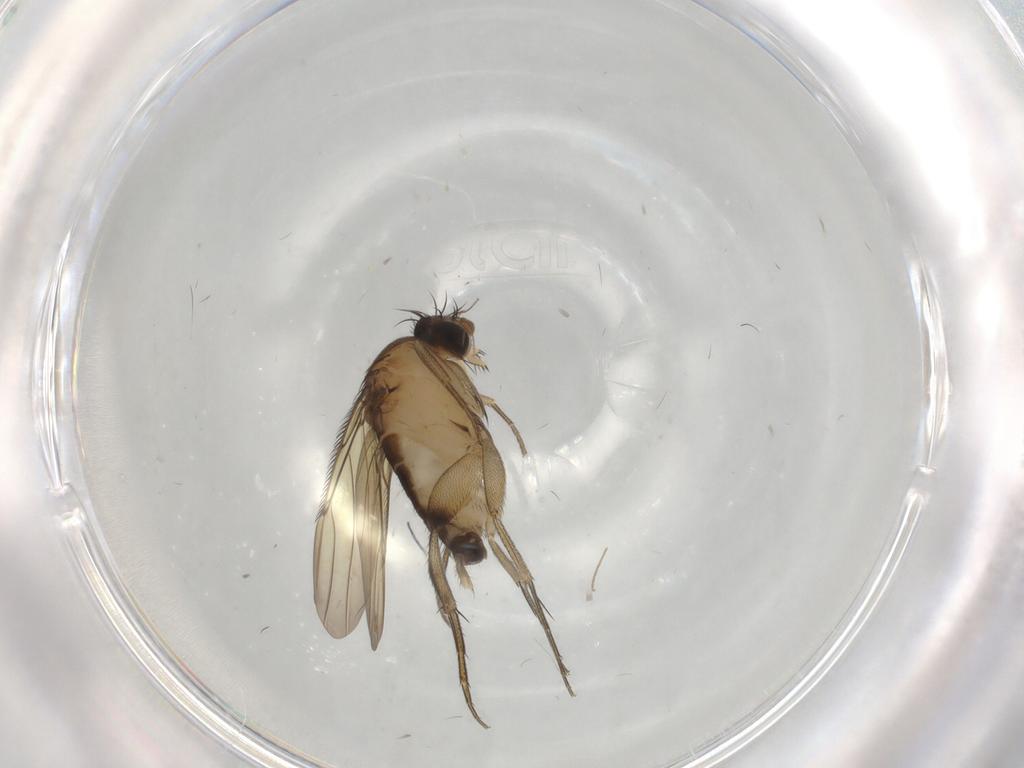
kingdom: Animalia
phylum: Arthropoda
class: Insecta
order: Diptera
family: Phoridae
